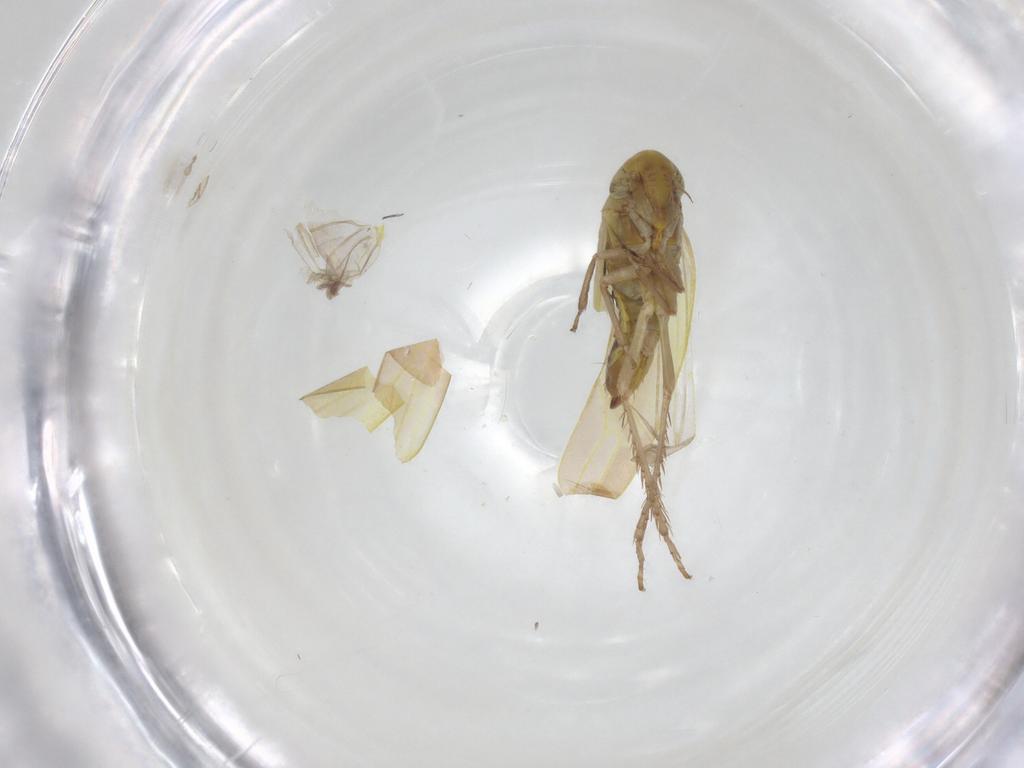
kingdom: Animalia
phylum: Arthropoda
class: Insecta
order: Hemiptera
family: Cicadellidae
